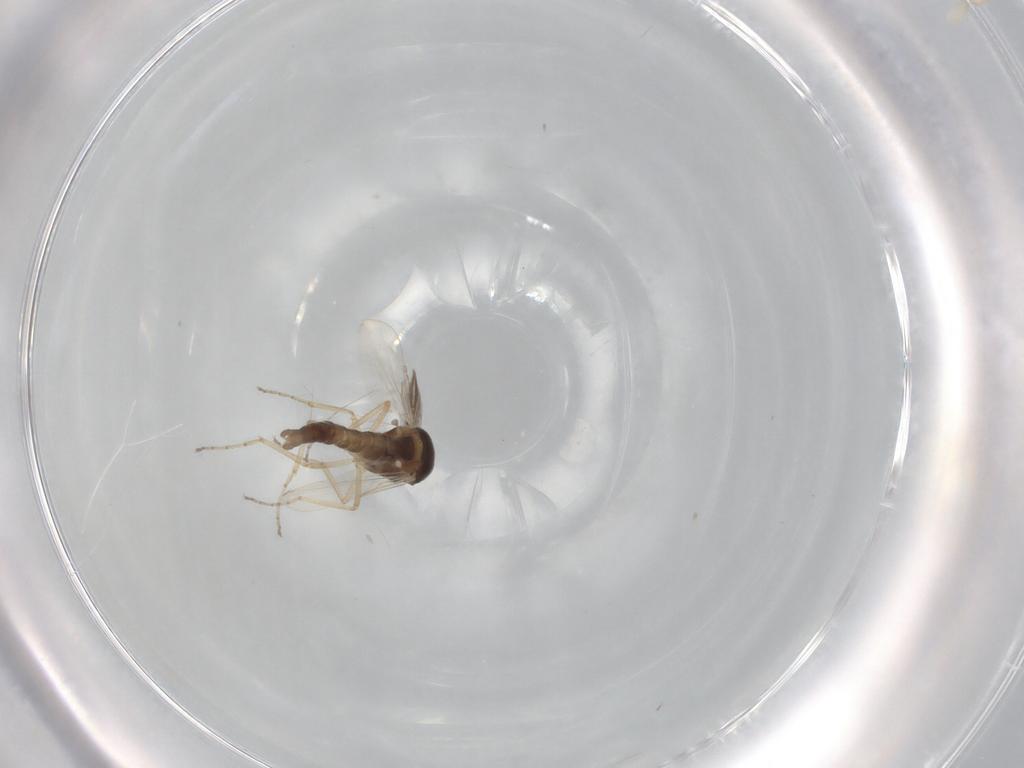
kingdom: Animalia
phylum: Arthropoda
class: Insecta
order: Diptera
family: Ceratopogonidae
